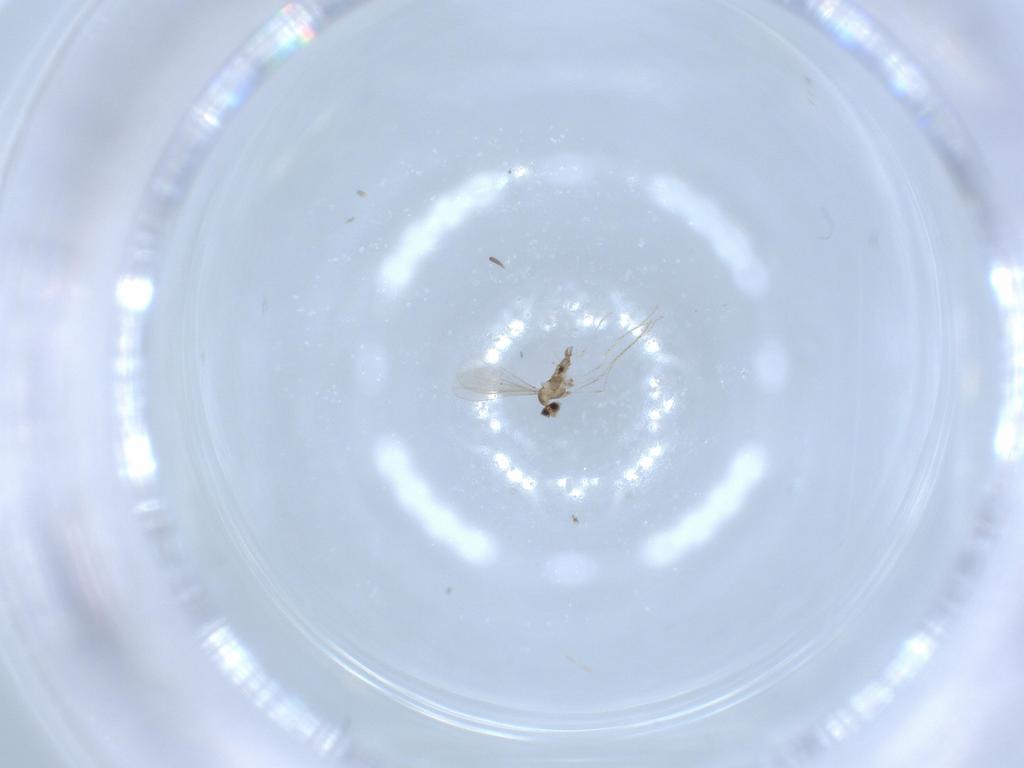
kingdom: Animalia
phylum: Arthropoda
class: Insecta
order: Diptera
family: Sciaridae
